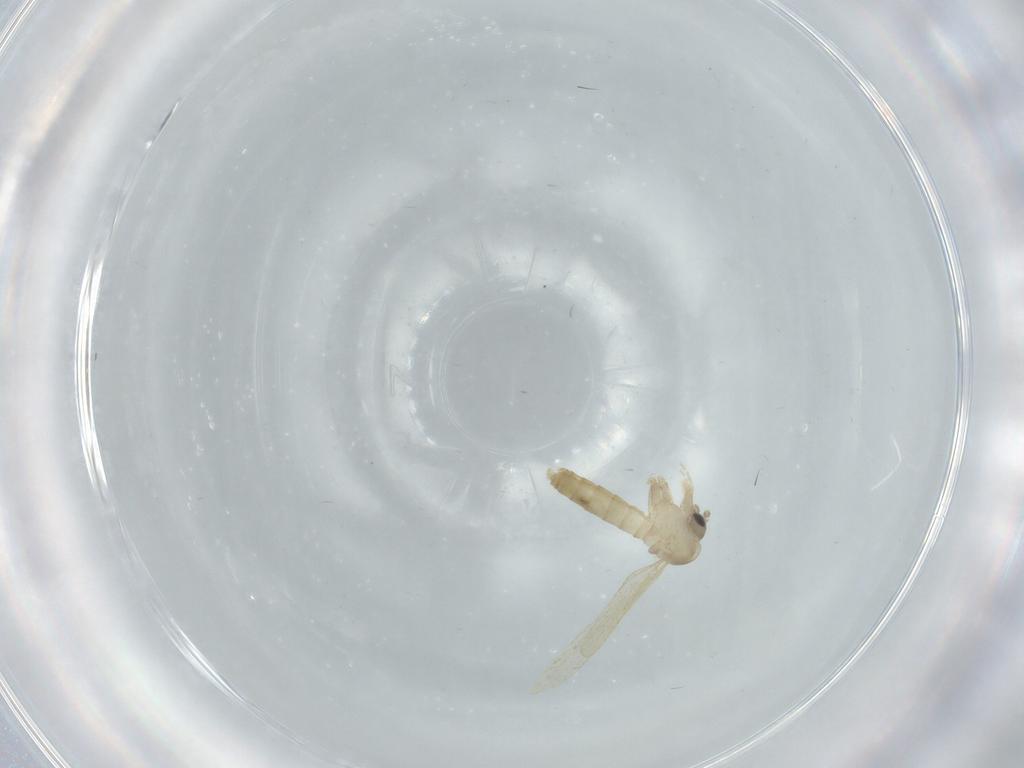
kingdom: Animalia
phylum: Arthropoda
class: Insecta
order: Diptera
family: Psychodidae
